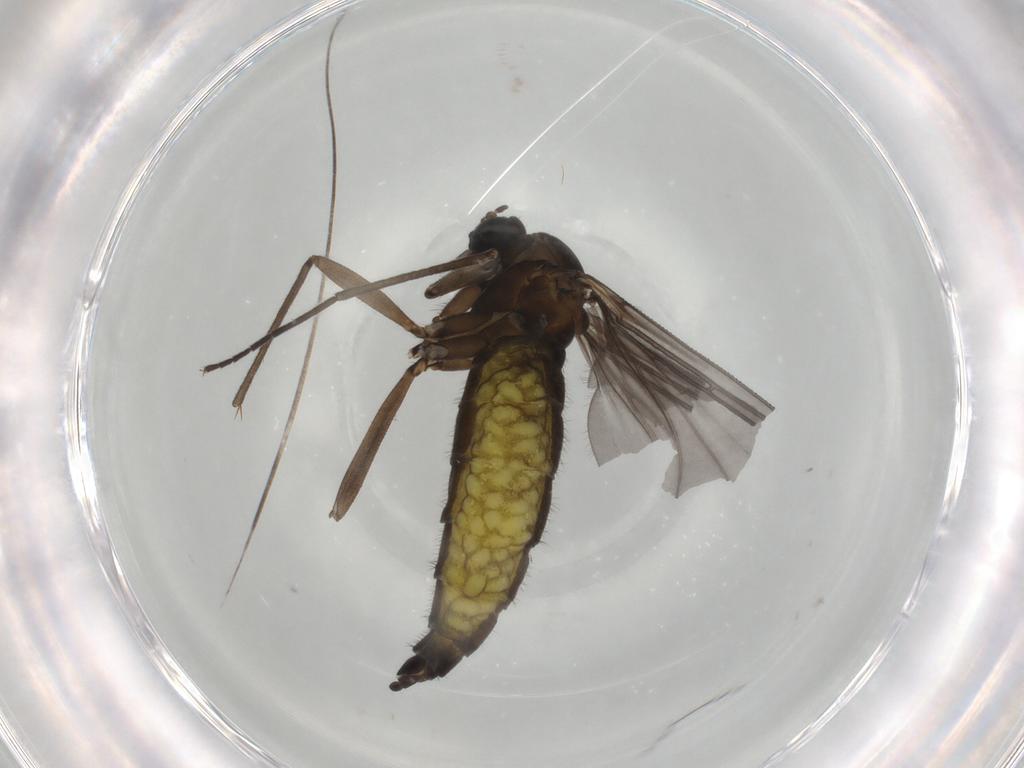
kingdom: Animalia
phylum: Arthropoda
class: Insecta
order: Diptera
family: Sciaridae
